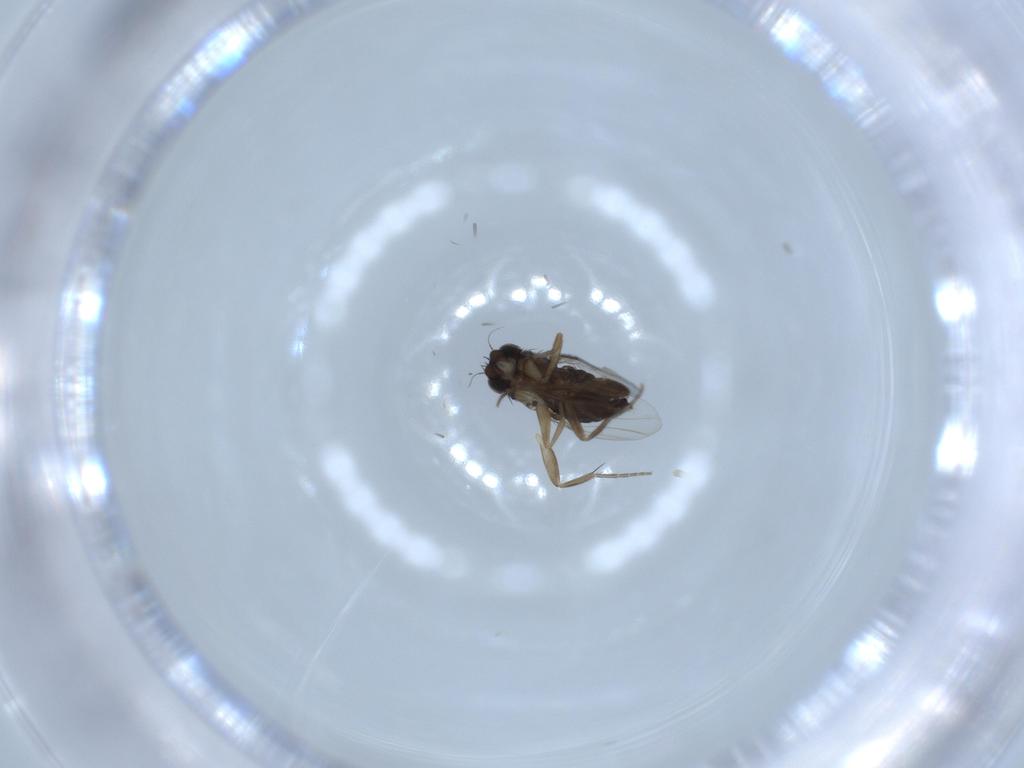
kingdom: Animalia
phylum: Arthropoda
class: Insecta
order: Diptera
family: Phoridae
